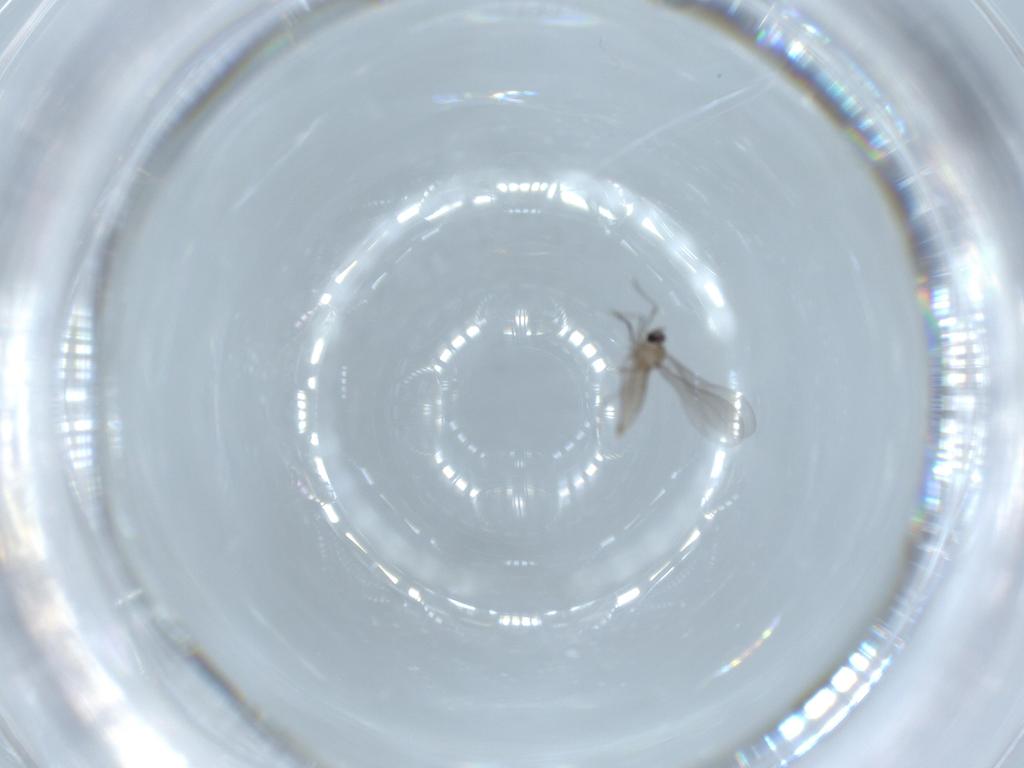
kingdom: Animalia
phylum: Arthropoda
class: Insecta
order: Diptera
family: Cecidomyiidae
